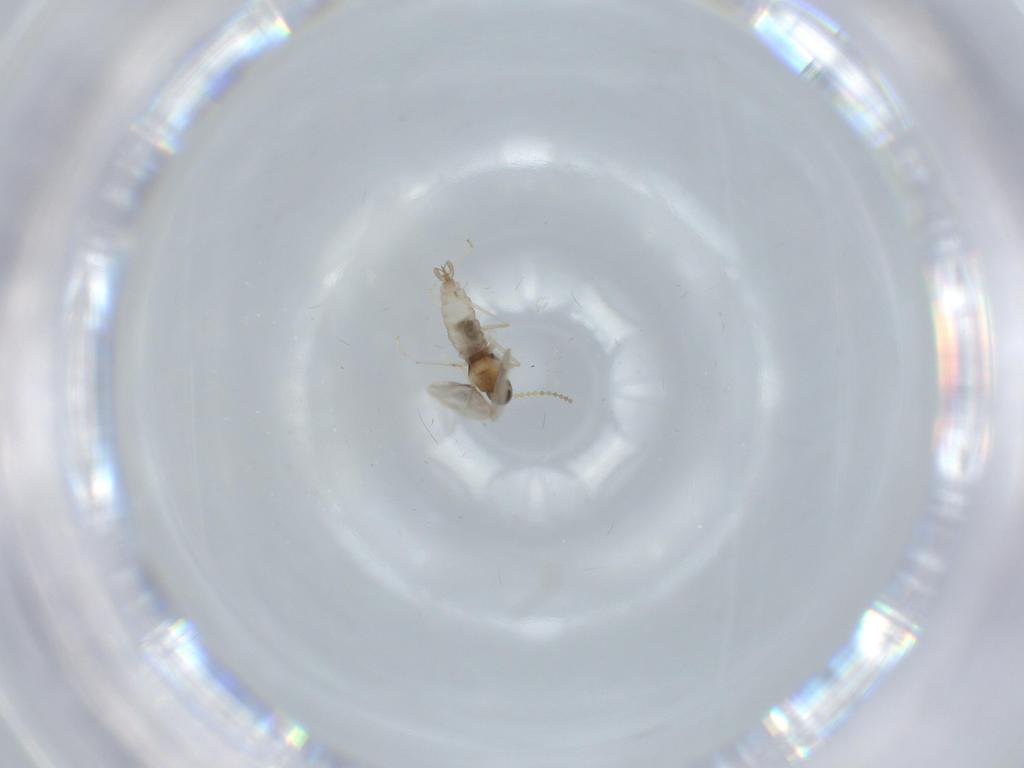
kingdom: Animalia
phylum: Arthropoda
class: Insecta
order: Diptera
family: Cecidomyiidae
